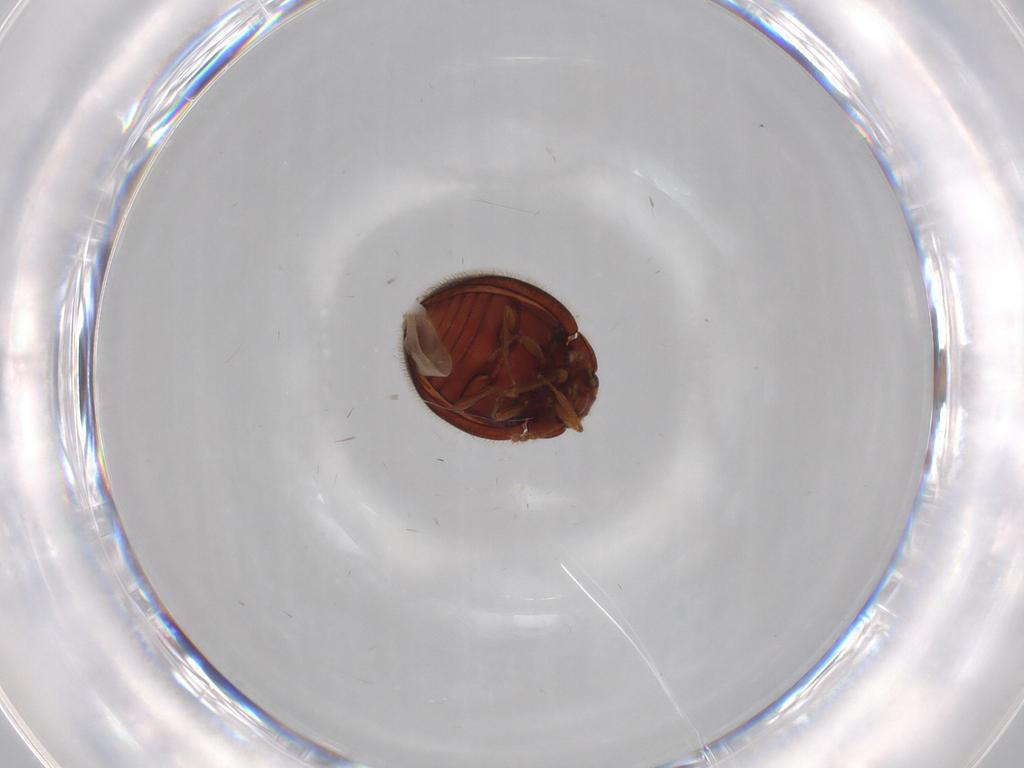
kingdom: Animalia
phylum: Arthropoda
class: Insecta
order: Coleoptera
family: Anamorphidae
